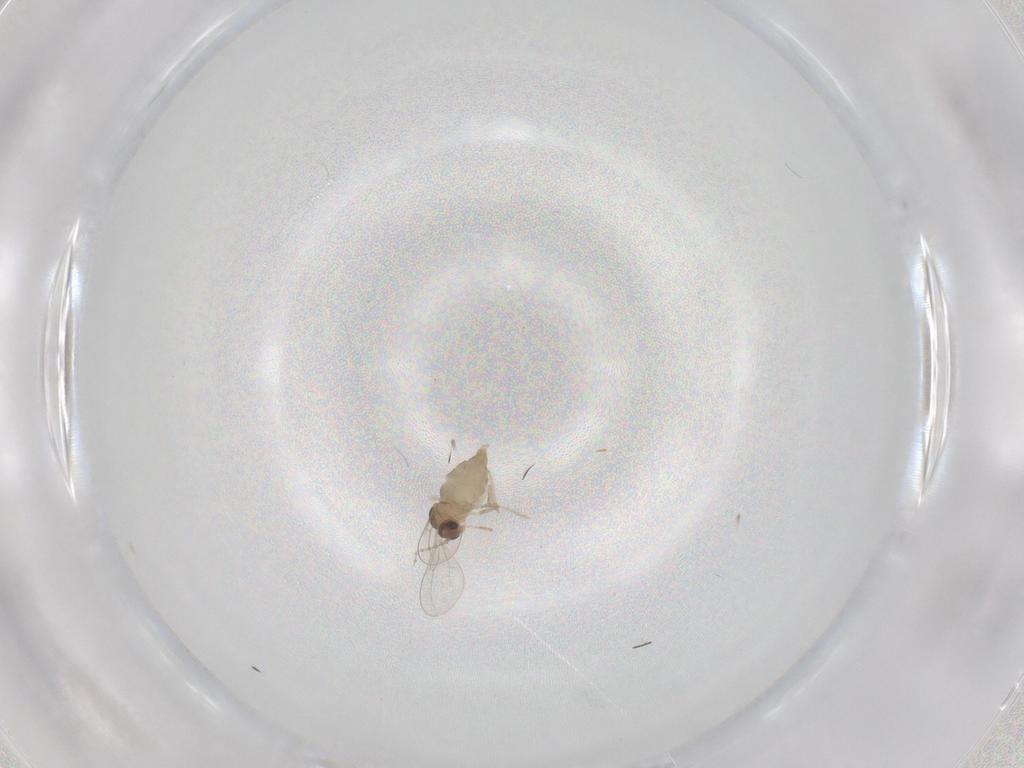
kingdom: Animalia
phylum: Arthropoda
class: Insecta
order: Diptera
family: Cecidomyiidae
